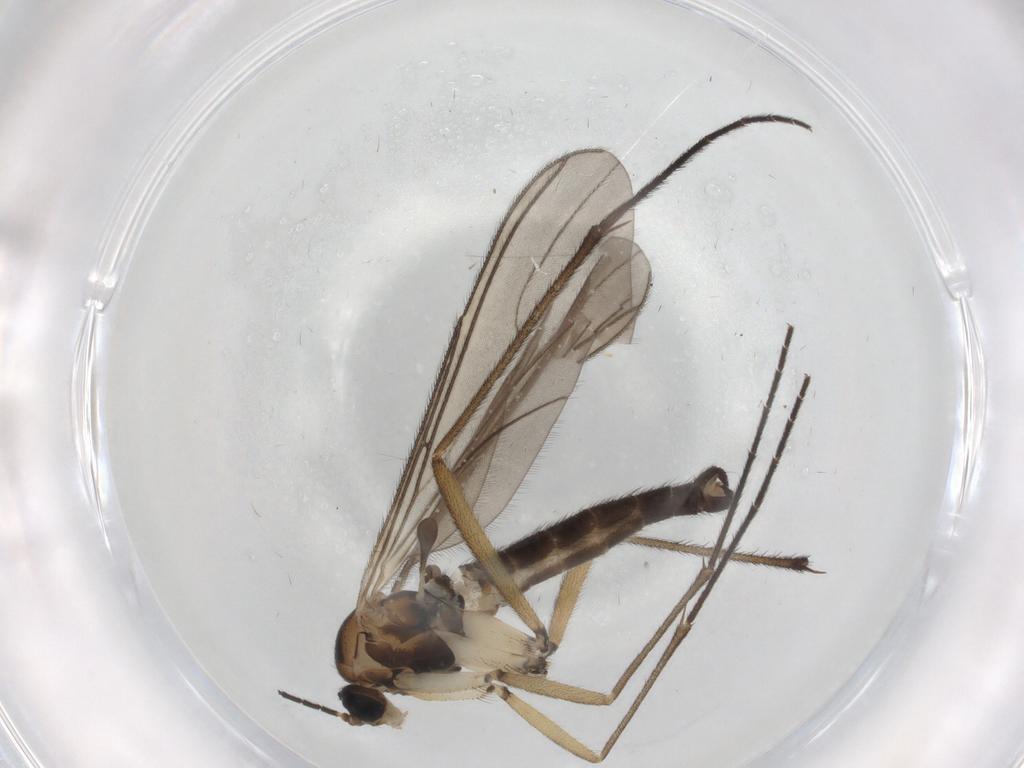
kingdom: Animalia
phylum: Arthropoda
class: Insecta
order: Diptera
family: Sciaridae
